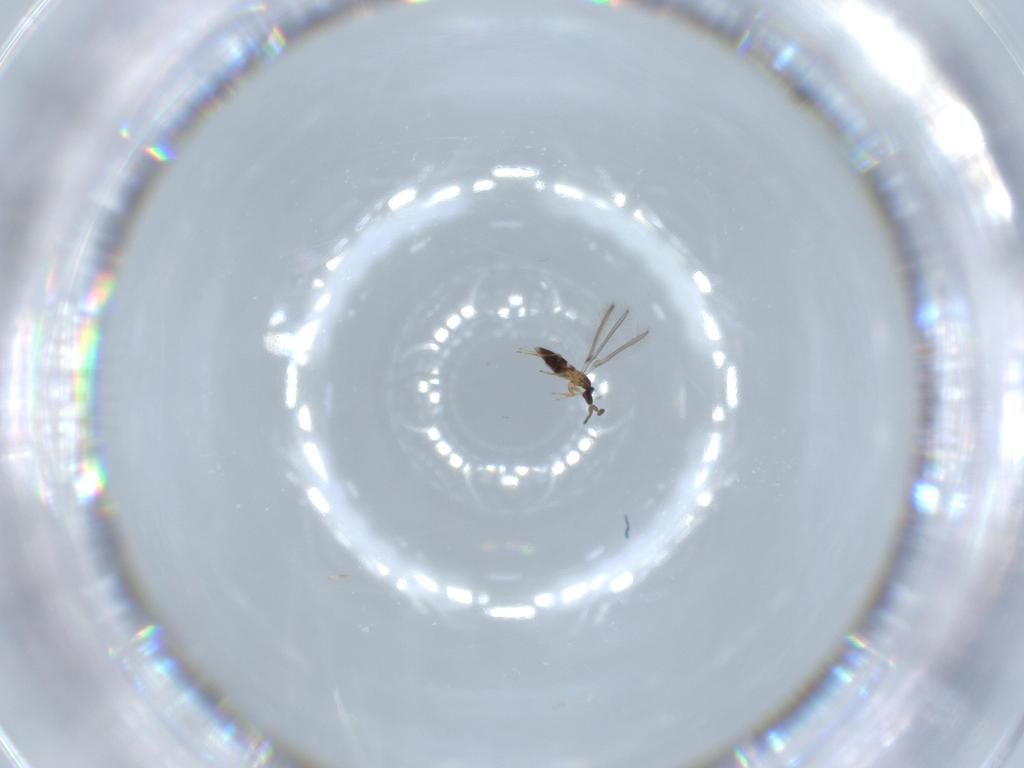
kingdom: Animalia
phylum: Arthropoda
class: Insecta
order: Hymenoptera
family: Mymaridae
